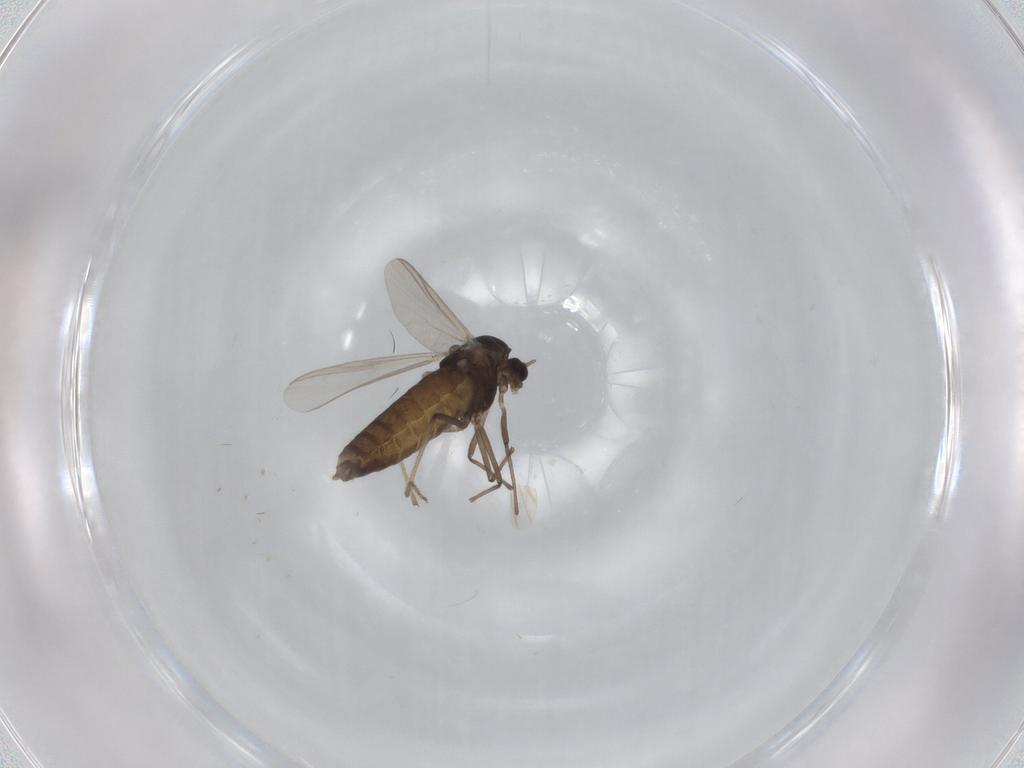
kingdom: Animalia
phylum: Arthropoda
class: Insecta
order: Diptera
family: Chironomidae
